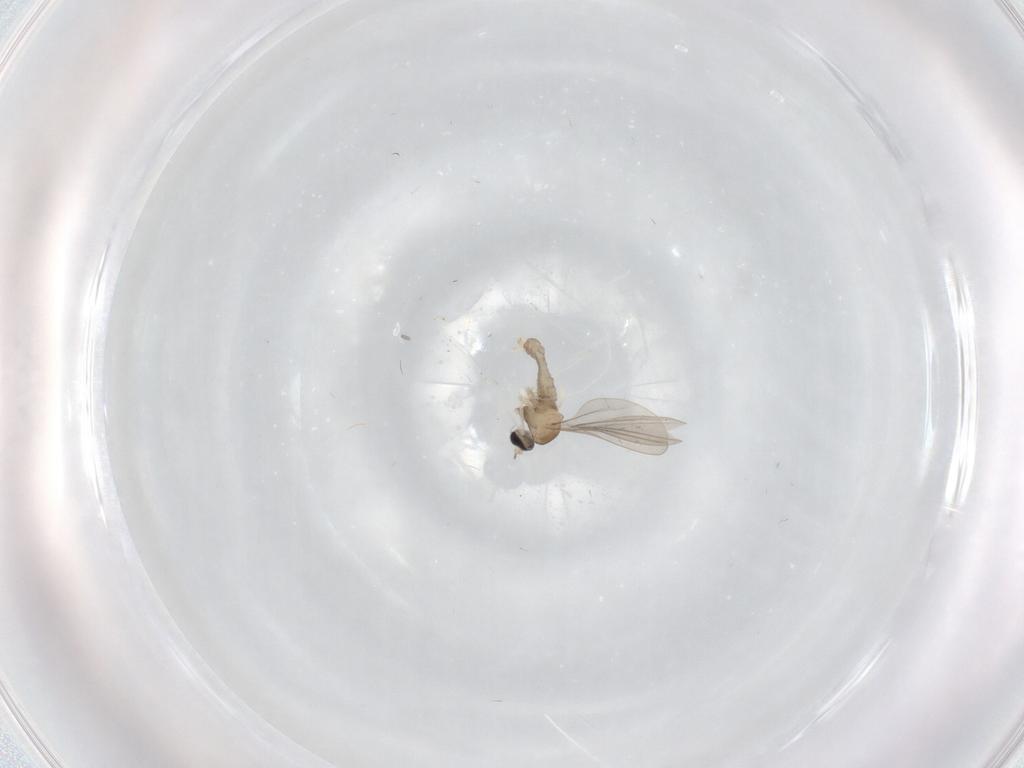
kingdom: Animalia
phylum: Arthropoda
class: Insecta
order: Diptera
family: Cecidomyiidae
